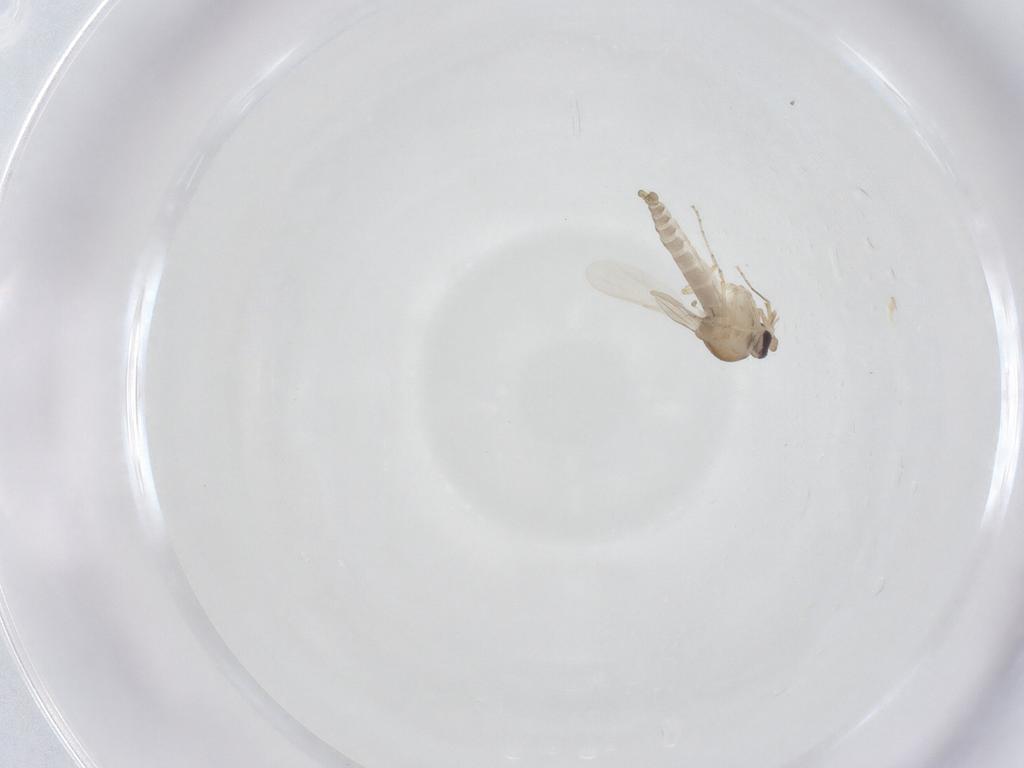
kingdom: Animalia
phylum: Arthropoda
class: Insecta
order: Diptera
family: Ceratopogonidae
